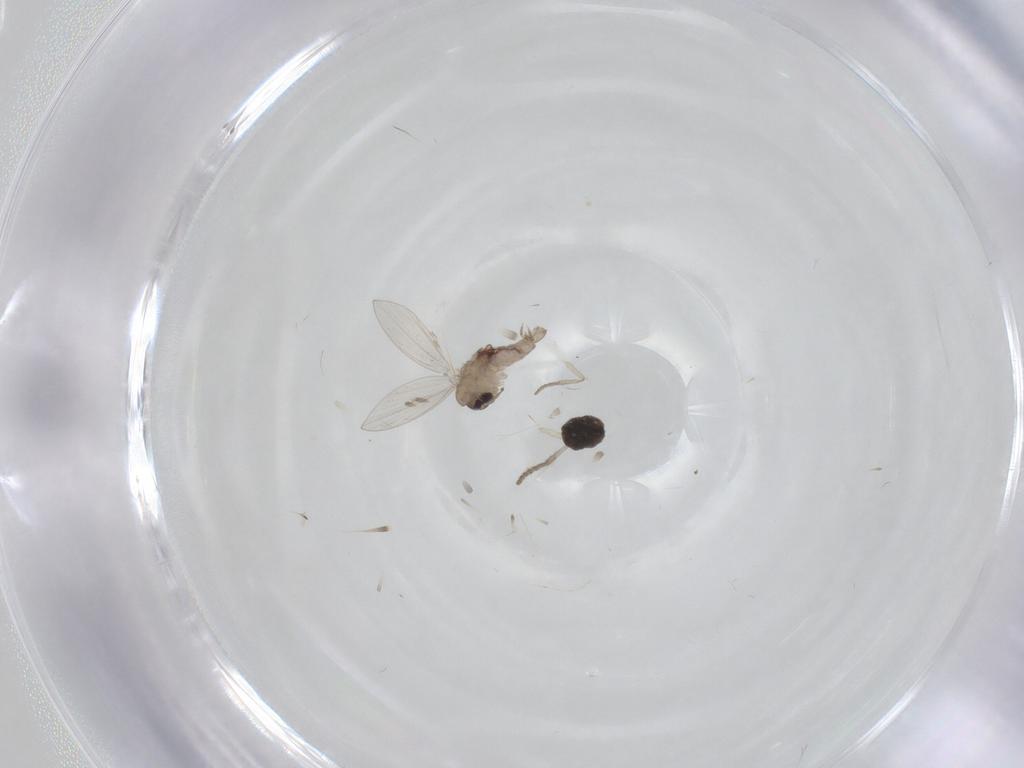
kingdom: Animalia
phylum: Arthropoda
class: Insecta
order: Diptera
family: Psychodidae
